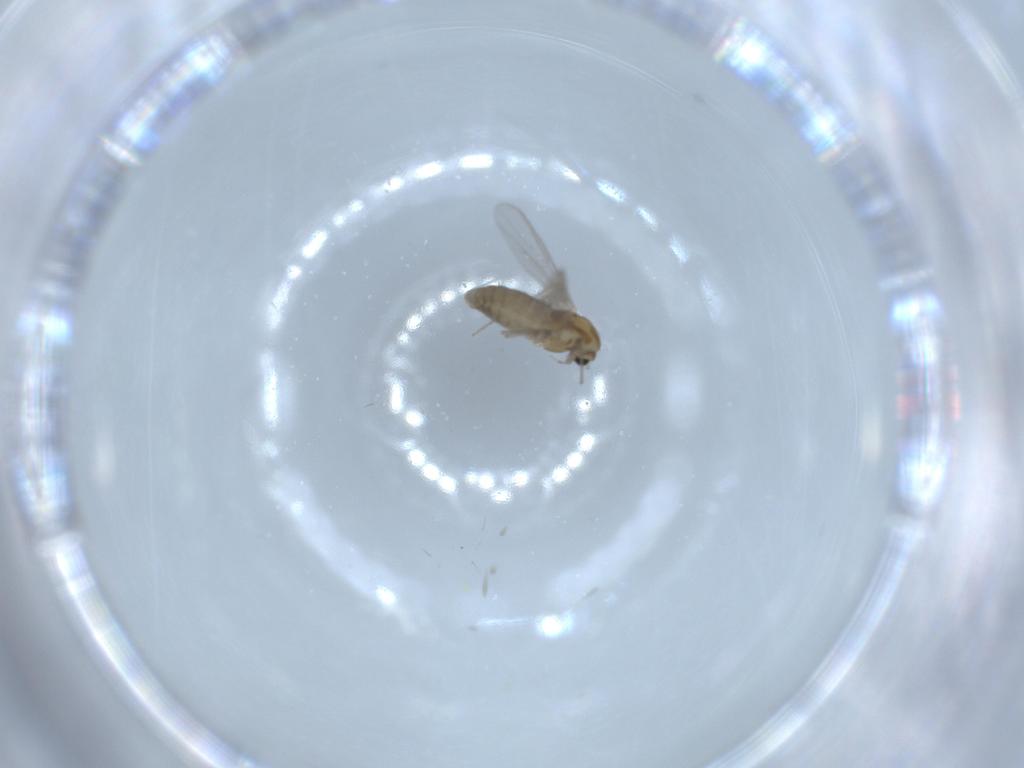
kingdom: Animalia
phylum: Arthropoda
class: Insecta
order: Diptera
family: Chironomidae
